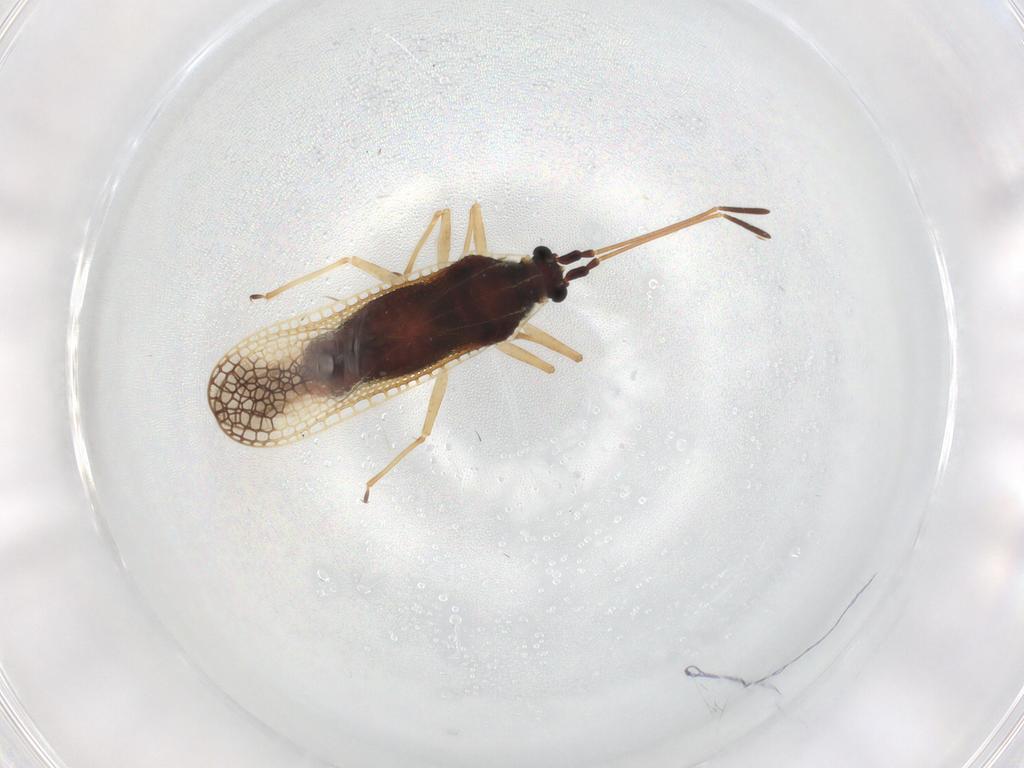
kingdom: Animalia
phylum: Arthropoda
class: Insecta
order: Hemiptera
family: Tingidae
